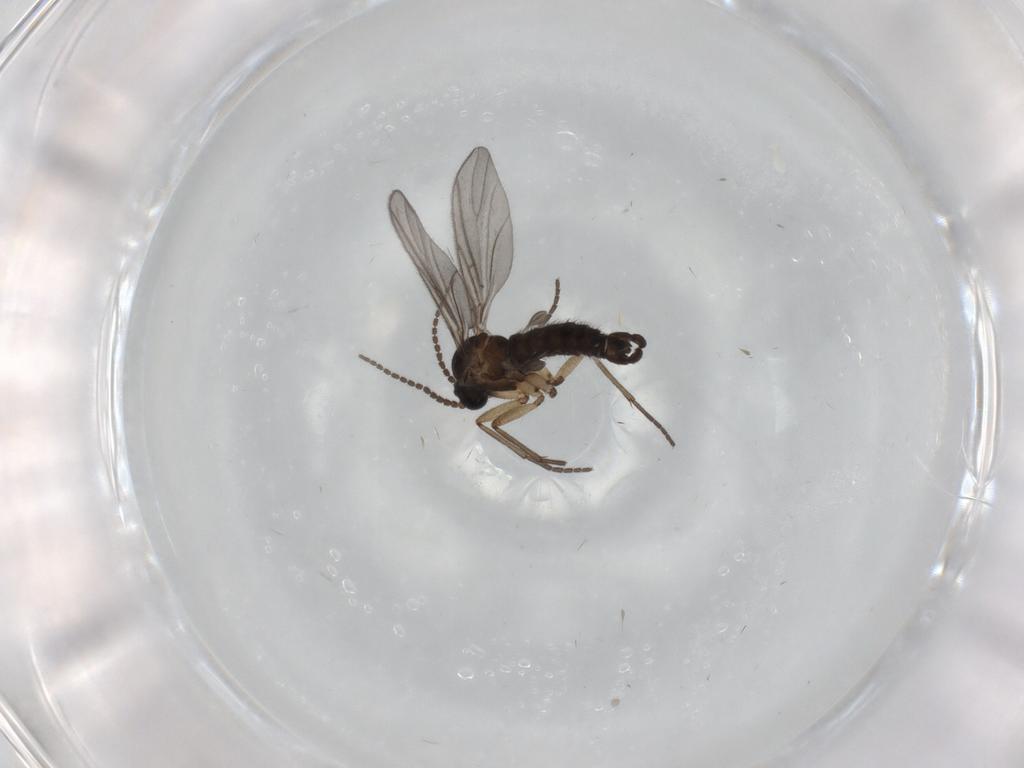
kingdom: Animalia
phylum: Arthropoda
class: Insecta
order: Diptera
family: Sciaridae
